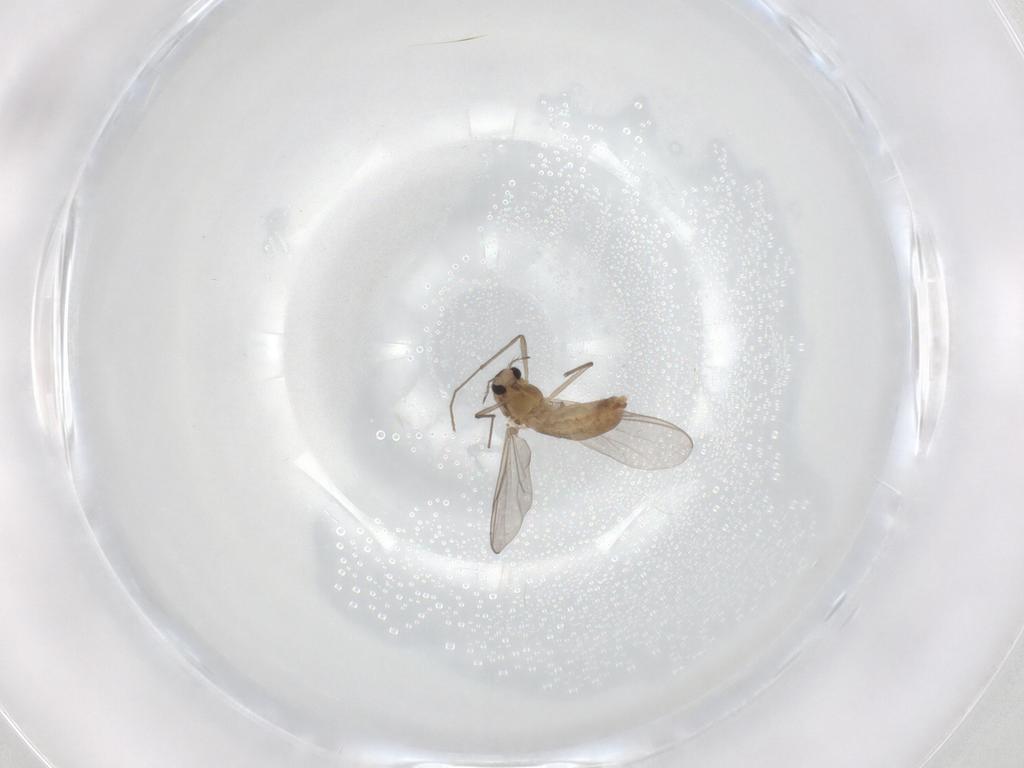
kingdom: Animalia
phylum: Arthropoda
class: Insecta
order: Diptera
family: Chironomidae
